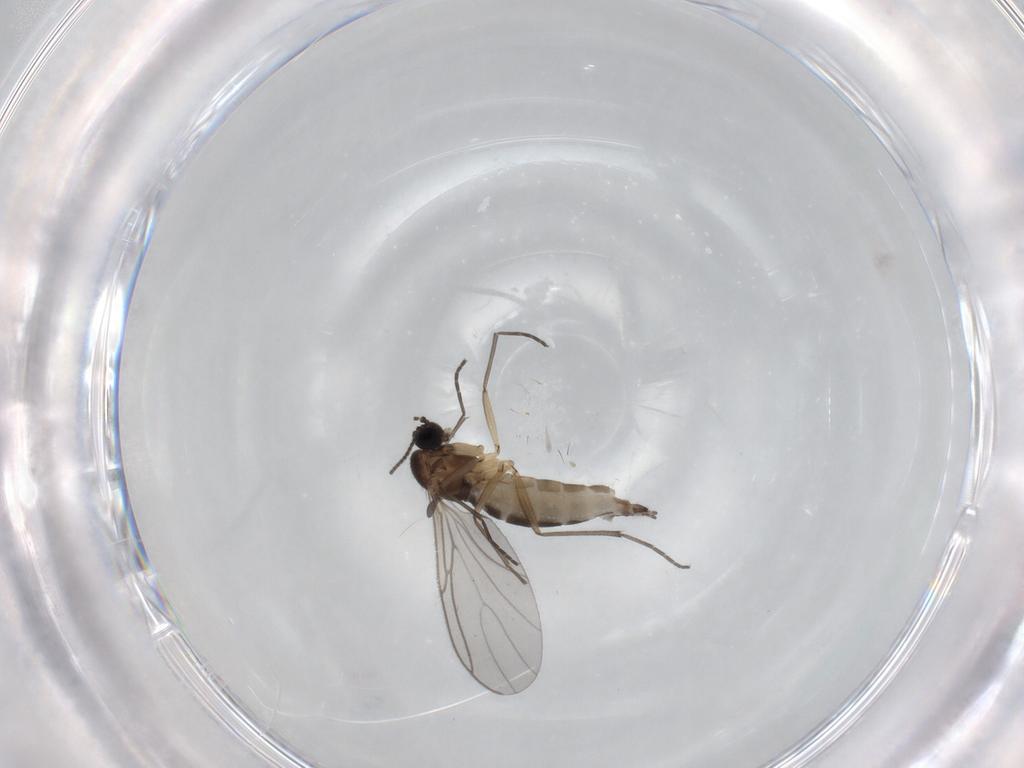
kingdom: Animalia
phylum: Arthropoda
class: Insecta
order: Diptera
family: Sciaridae
